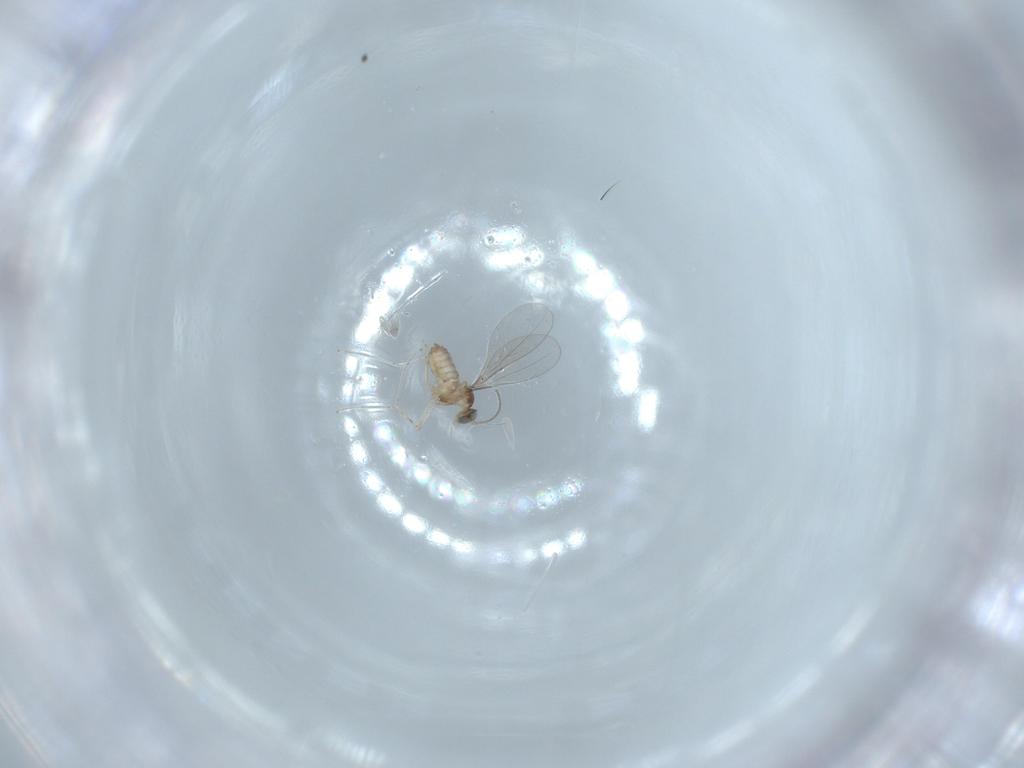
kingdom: Animalia
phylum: Arthropoda
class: Insecta
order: Diptera
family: Cecidomyiidae
